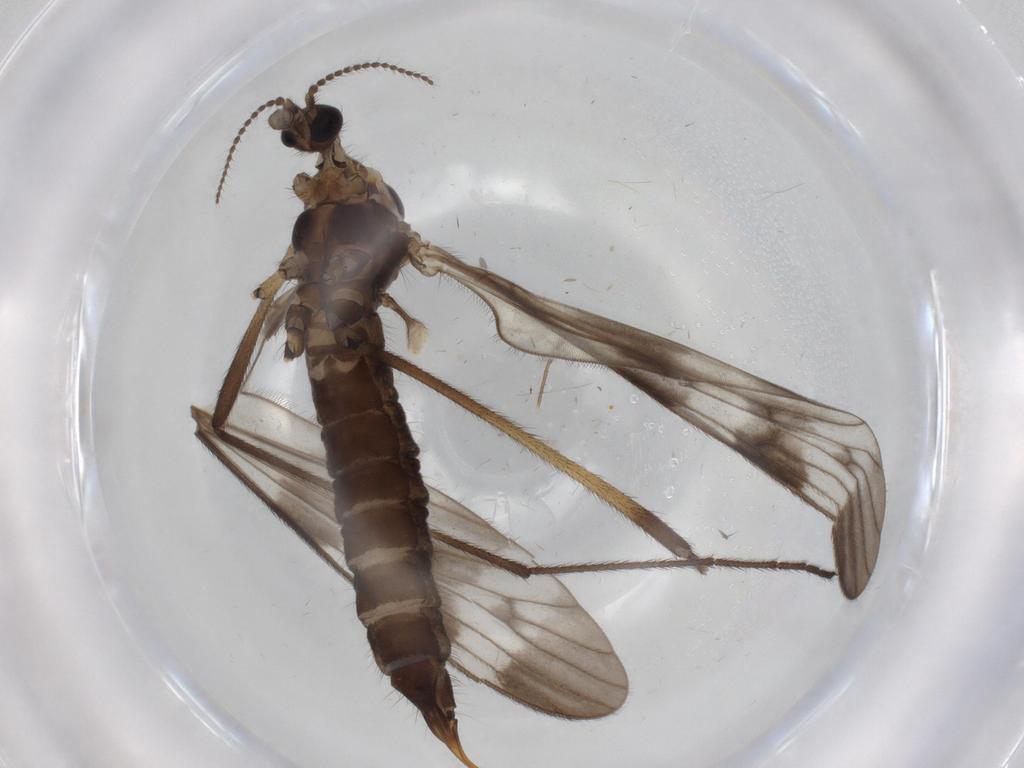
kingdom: Animalia
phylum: Arthropoda
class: Insecta
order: Diptera
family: Limoniidae
